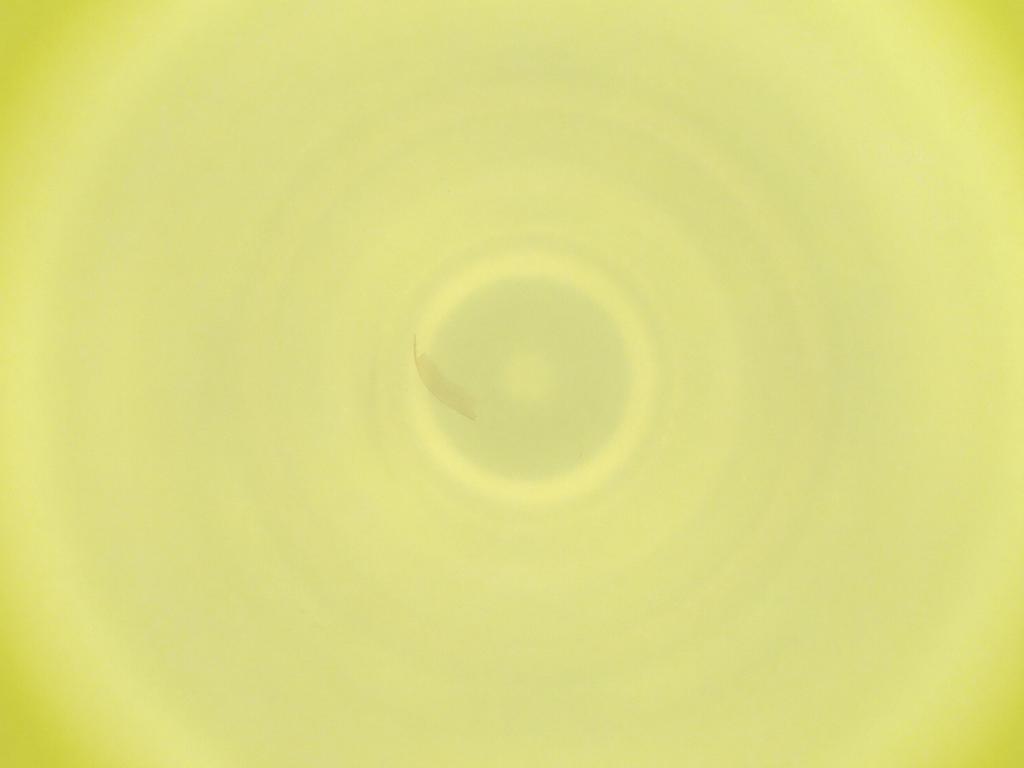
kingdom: Animalia
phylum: Arthropoda
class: Insecta
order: Diptera
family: Cecidomyiidae
